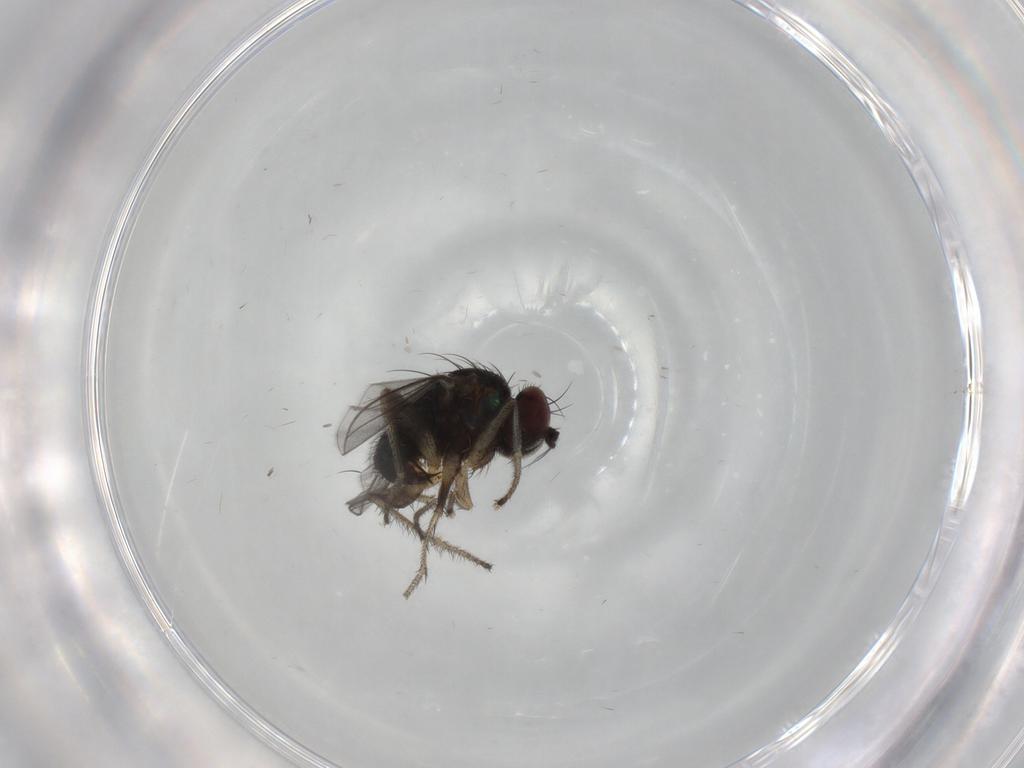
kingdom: Animalia
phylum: Arthropoda
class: Insecta
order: Diptera
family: Dolichopodidae
